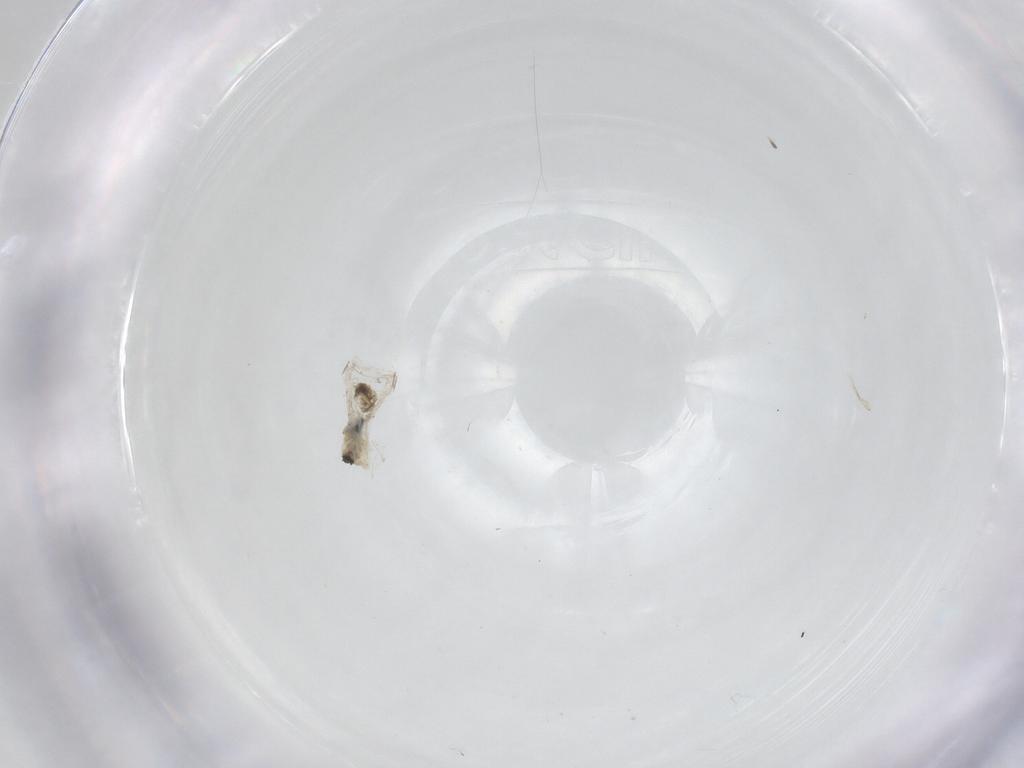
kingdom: Animalia
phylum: Arthropoda
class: Insecta
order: Psocodea
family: Caeciliusidae
